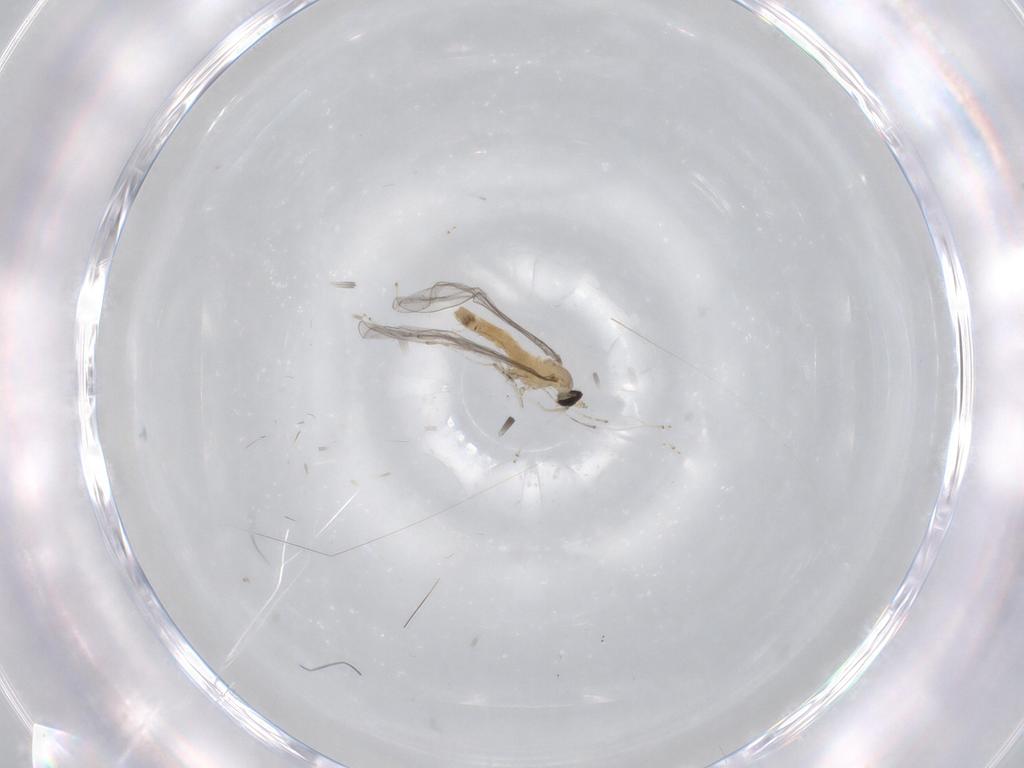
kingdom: Animalia
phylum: Arthropoda
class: Insecta
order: Diptera
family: Cecidomyiidae
